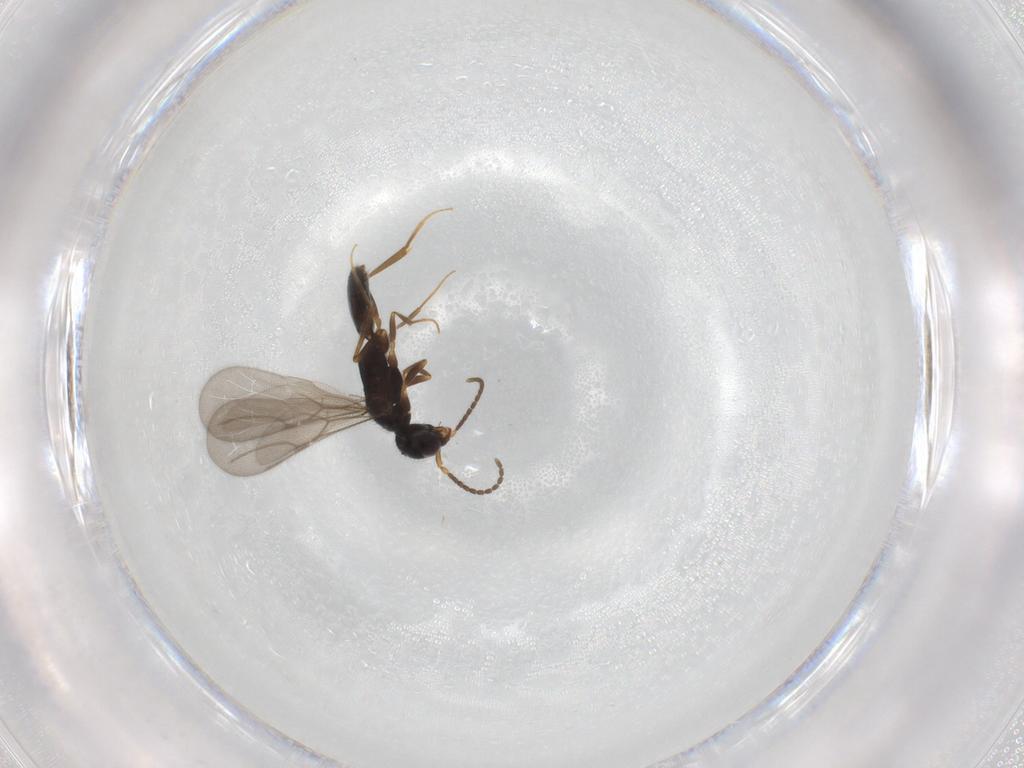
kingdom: Animalia
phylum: Arthropoda
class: Insecta
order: Hymenoptera
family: Bethylidae
